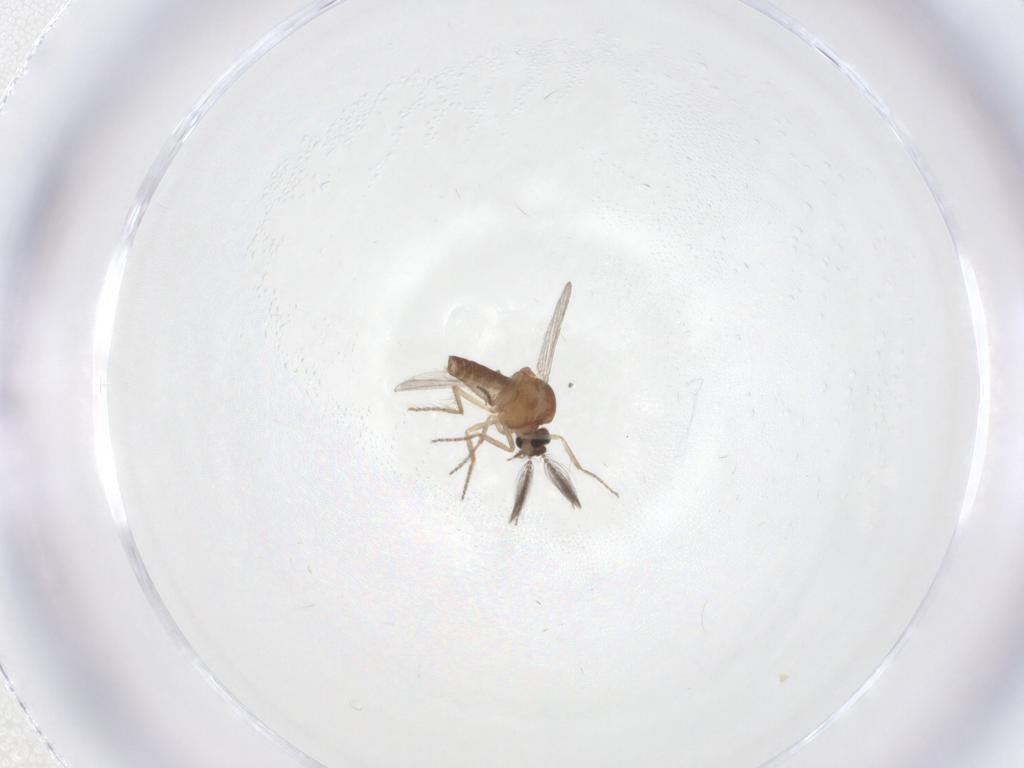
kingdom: Animalia
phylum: Arthropoda
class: Insecta
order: Diptera
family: Ceratopogonidae
